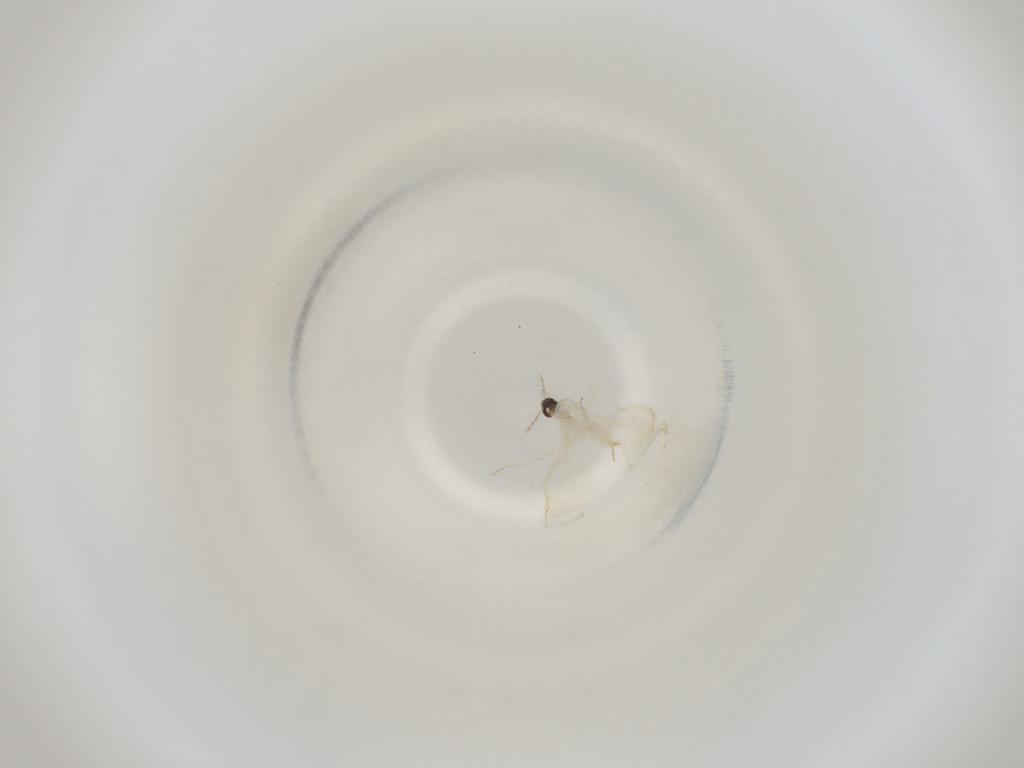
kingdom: Animalia
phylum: Arthropoda
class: Insecta
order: Diptera
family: Cecidomyiidae
